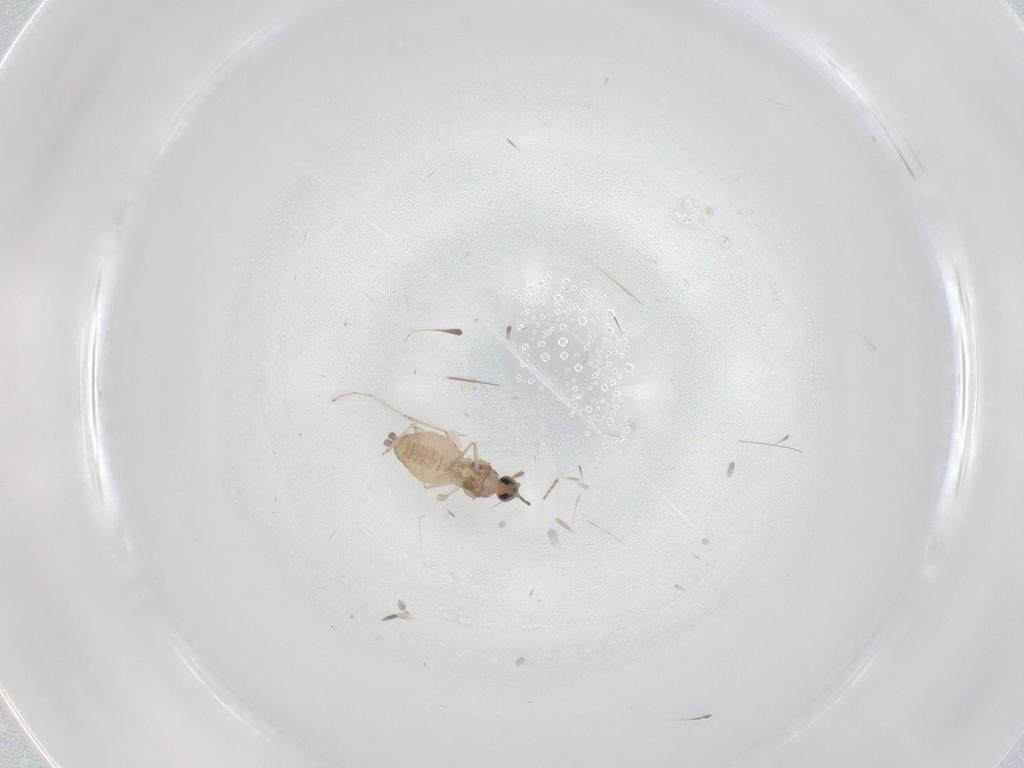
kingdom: Animalia
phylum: Arthropoda
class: Insecta
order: Diptera
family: Cecidomyiidae
